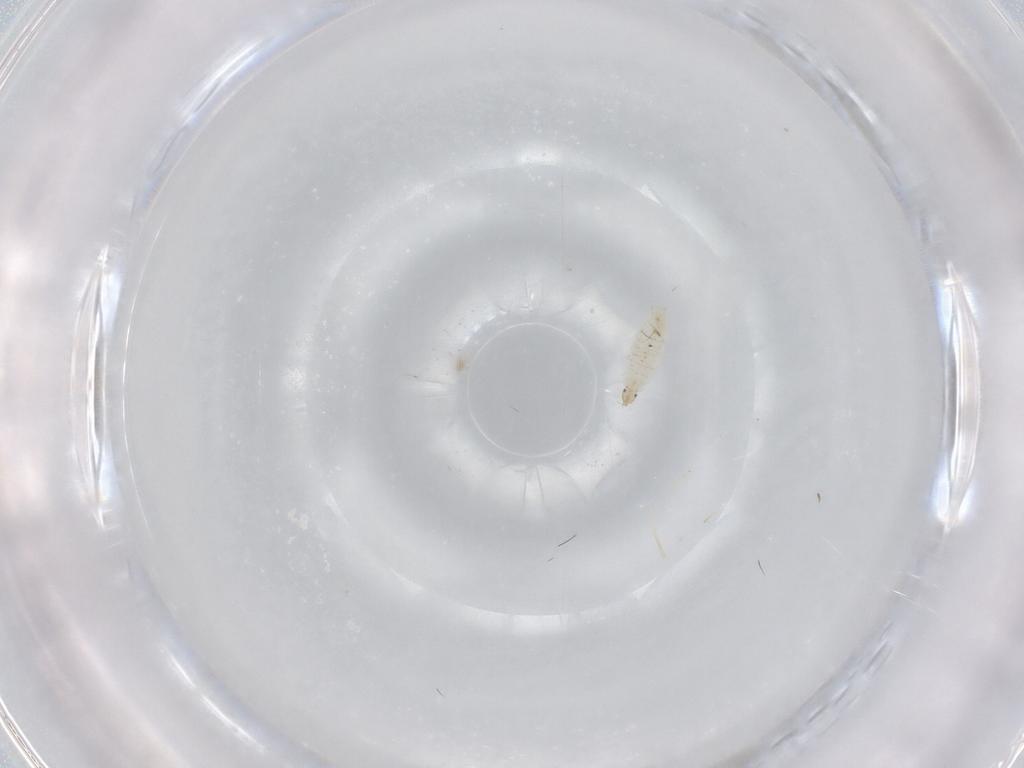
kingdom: Animalia
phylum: Arthropoda
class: Insecta
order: Diptera
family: Cecidomyiidae
